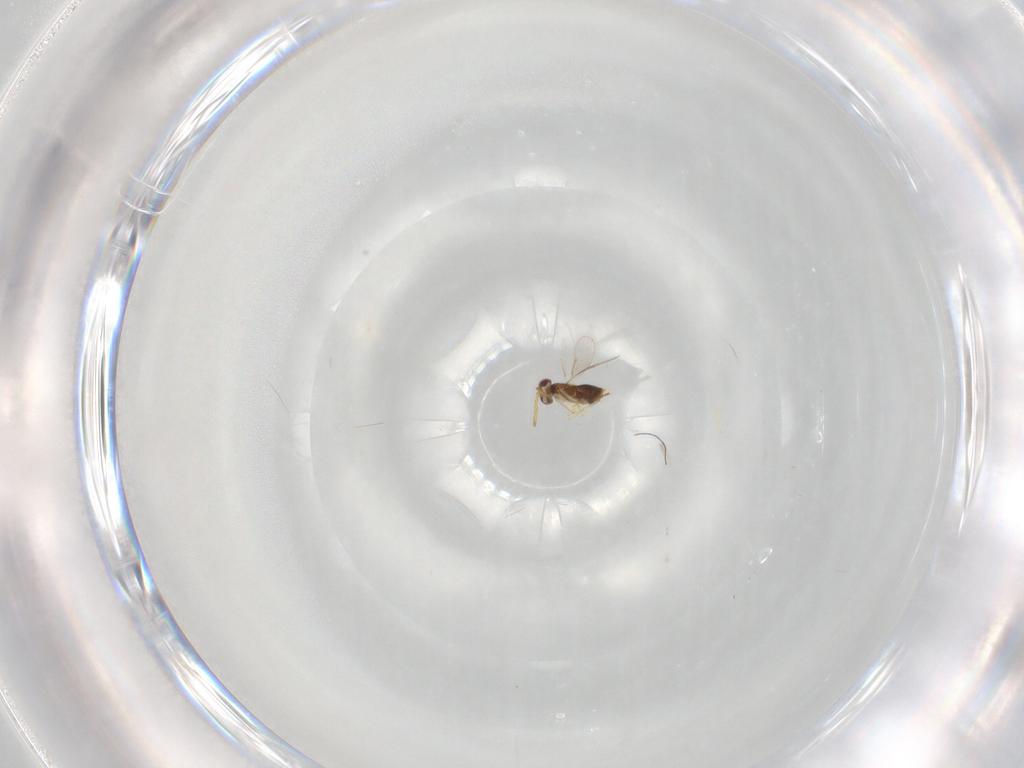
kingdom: Animalia
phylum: Arthropoda
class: Insecta
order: Hymenoptera
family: Aphelinidae
